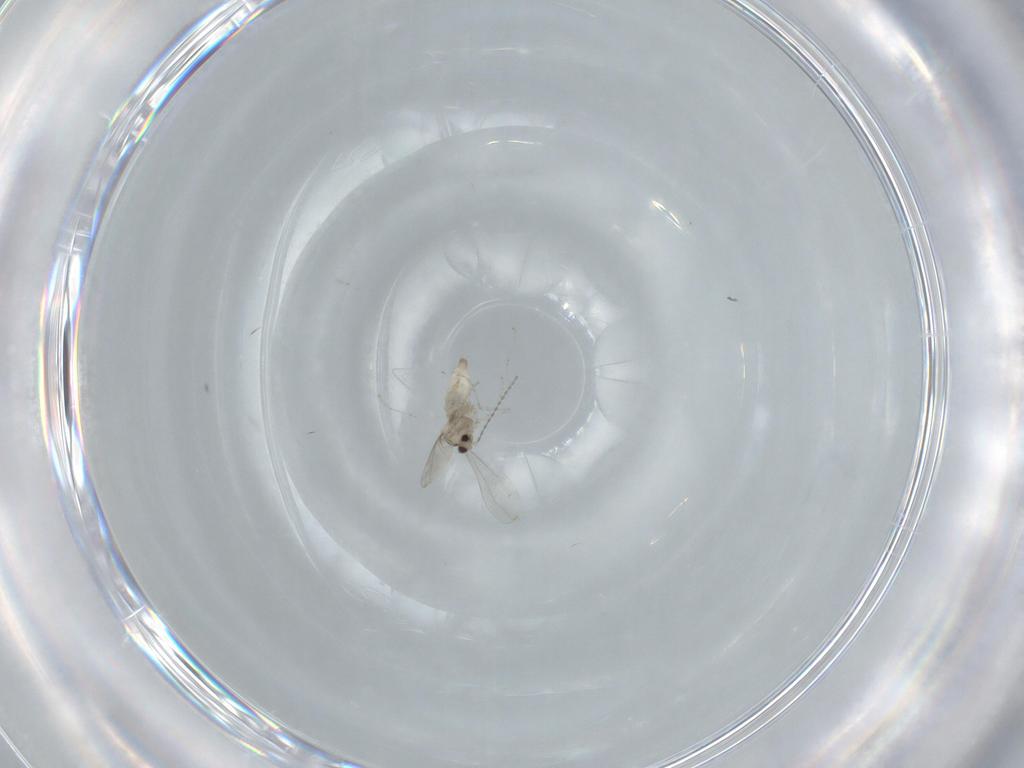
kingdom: Animalia
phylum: Arthropoda
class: Insecta
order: Diptera
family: Cecidomyiidae
